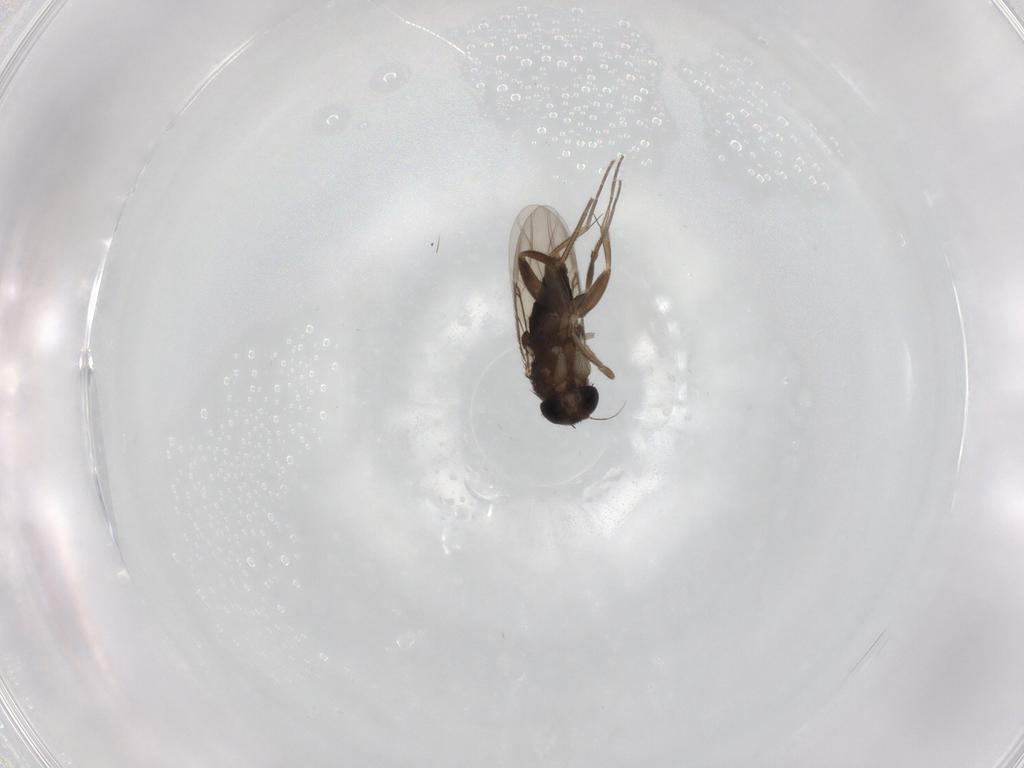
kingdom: Animalia
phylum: Arthropoda
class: Insecta
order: Diptera
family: Phoridae
